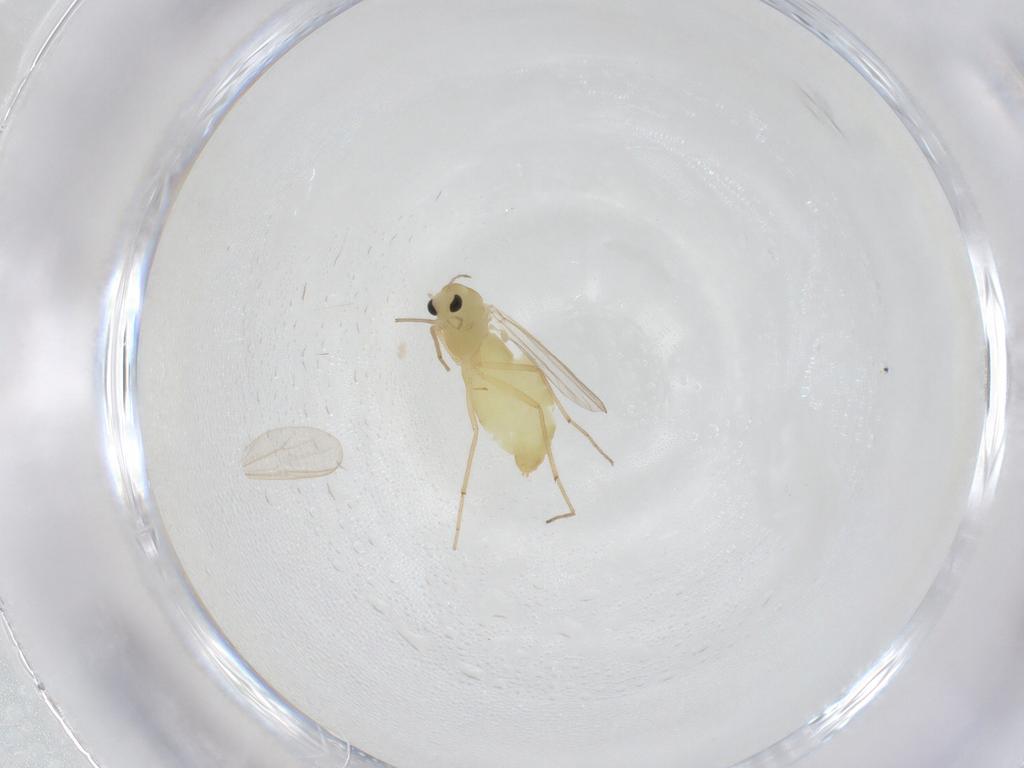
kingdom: Animalia
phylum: Arthropoda
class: Insecta
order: Diptera
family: Chironomidae
